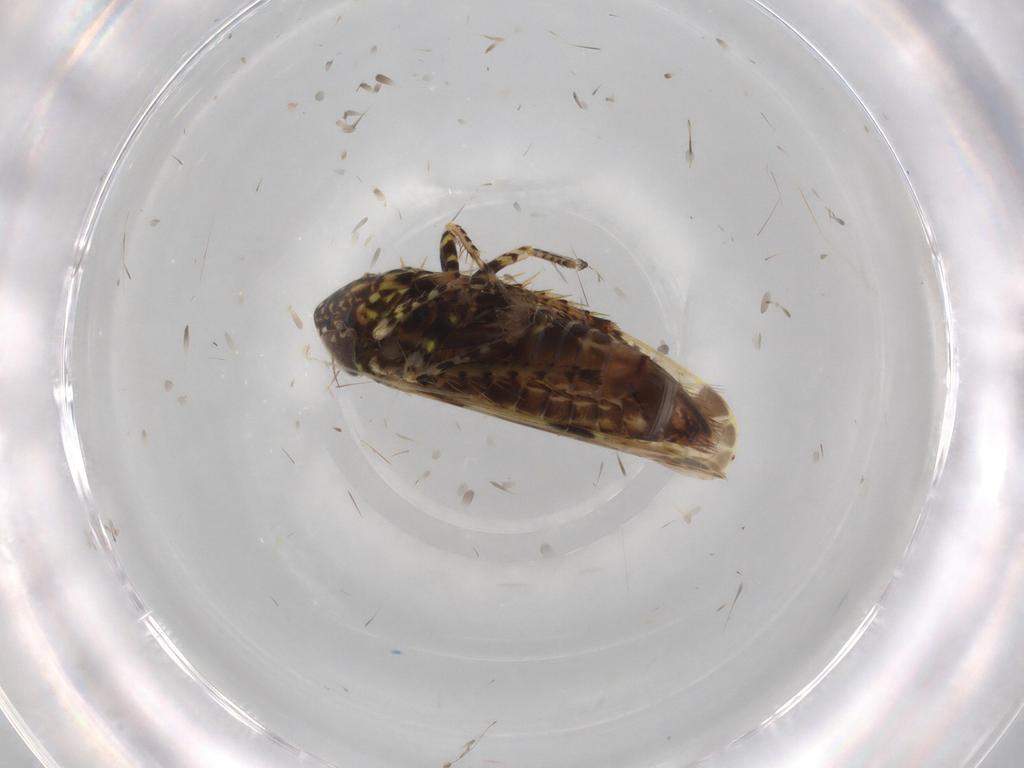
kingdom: Animalia
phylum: Arthropoda
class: Insecta
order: Hemiptera
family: Cicadellidae
